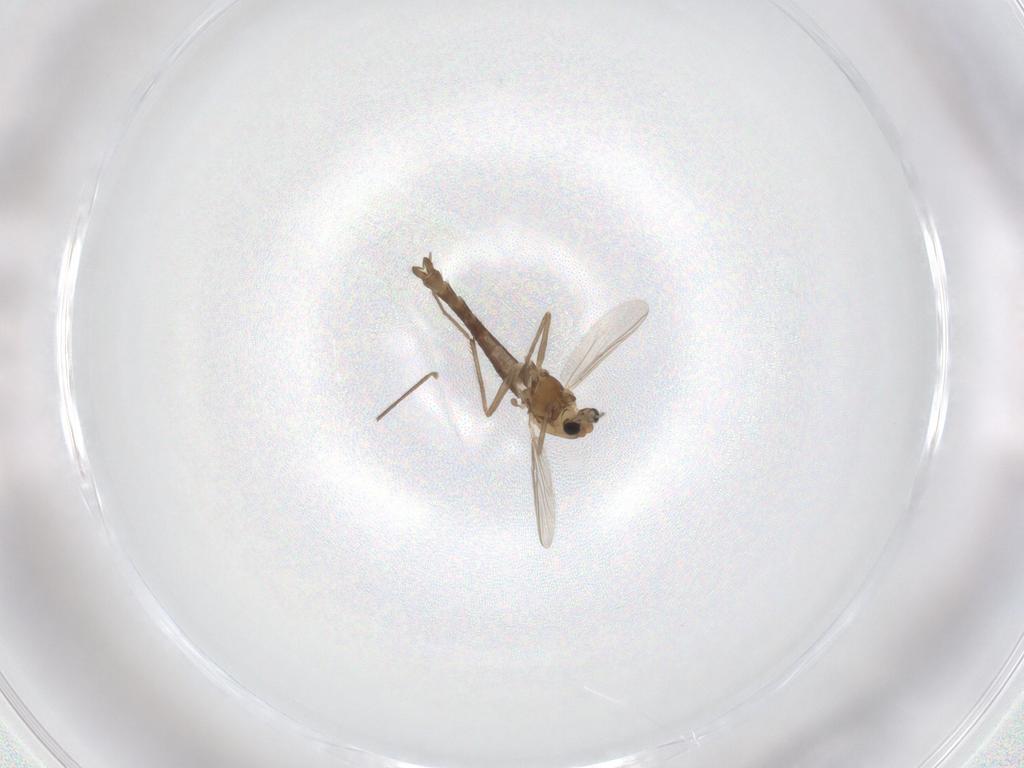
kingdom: Animalia
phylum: Arthropoda
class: Insecta
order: Diptera
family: Chironomidae
